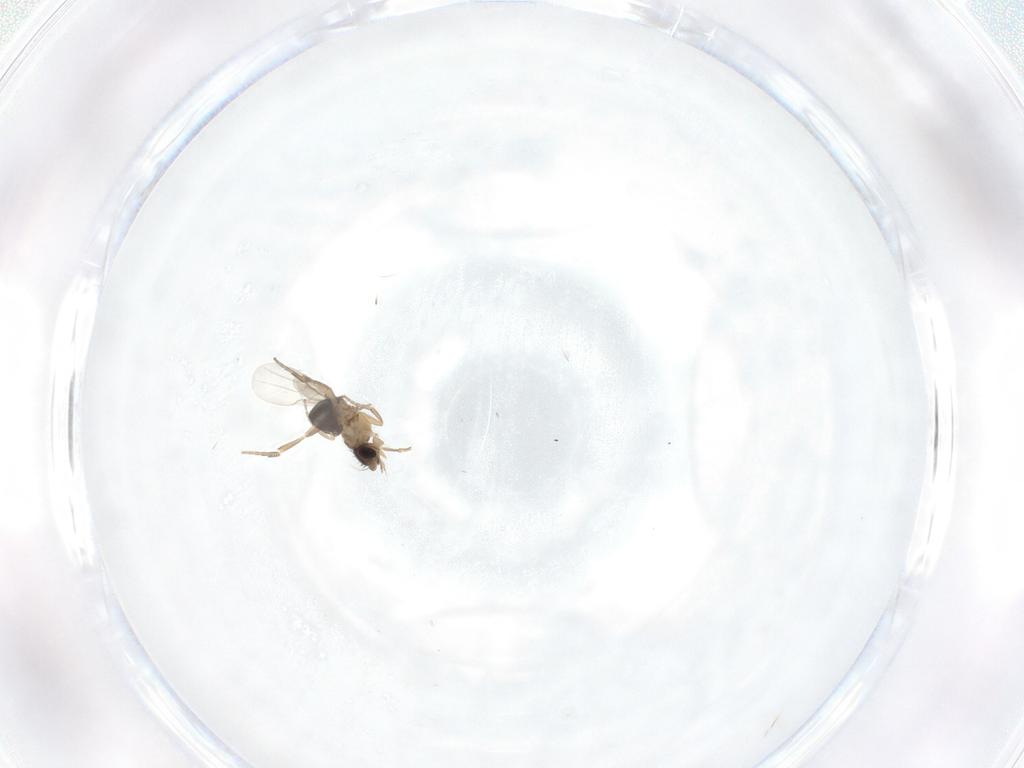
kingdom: Animalia
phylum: Arthropoda
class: Insecta
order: Diptera
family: Phoridae
